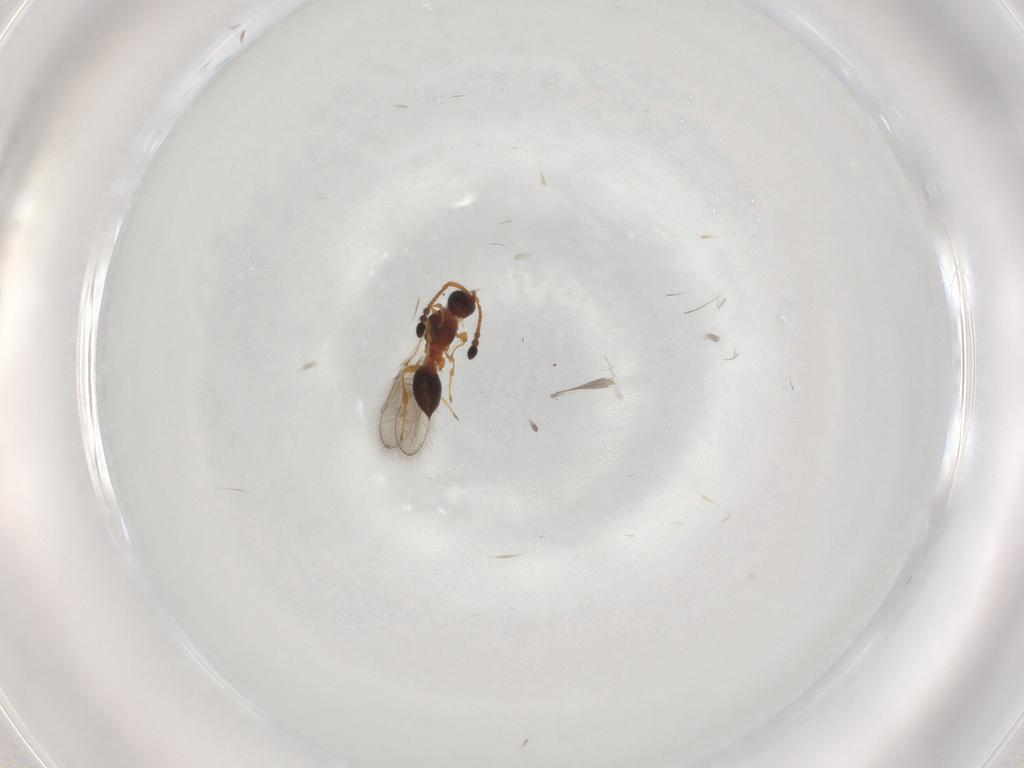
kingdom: Animalia
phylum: Arthropoda
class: Insecta
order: Hymenoptera
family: Diapriidae
